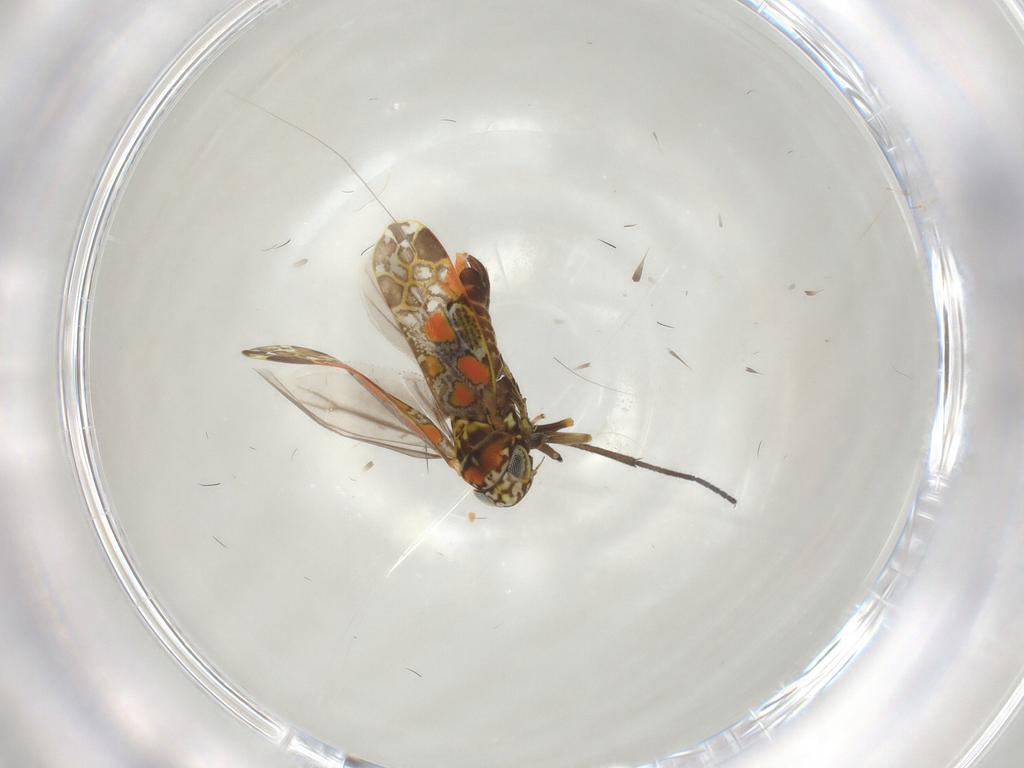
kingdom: Animalia
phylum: Arthropoda
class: Insecta
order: Hemiptera
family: Cicadellidae
